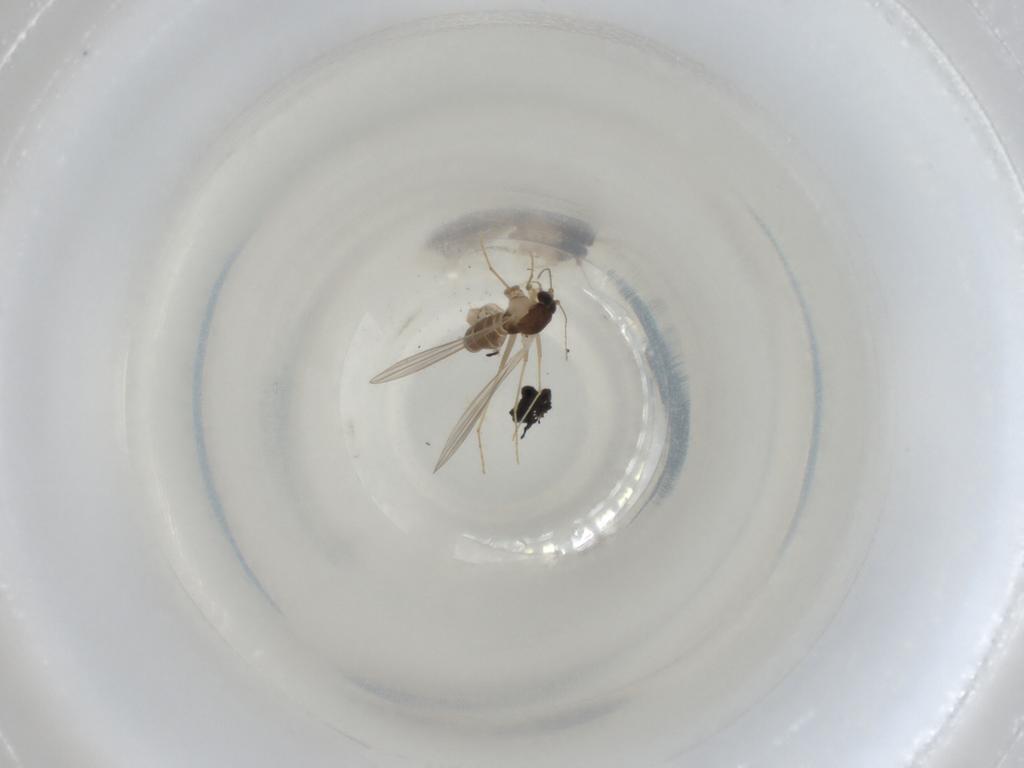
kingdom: Animalia
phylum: Arthropoda
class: Insecta
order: Diptera
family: Psychodidae
